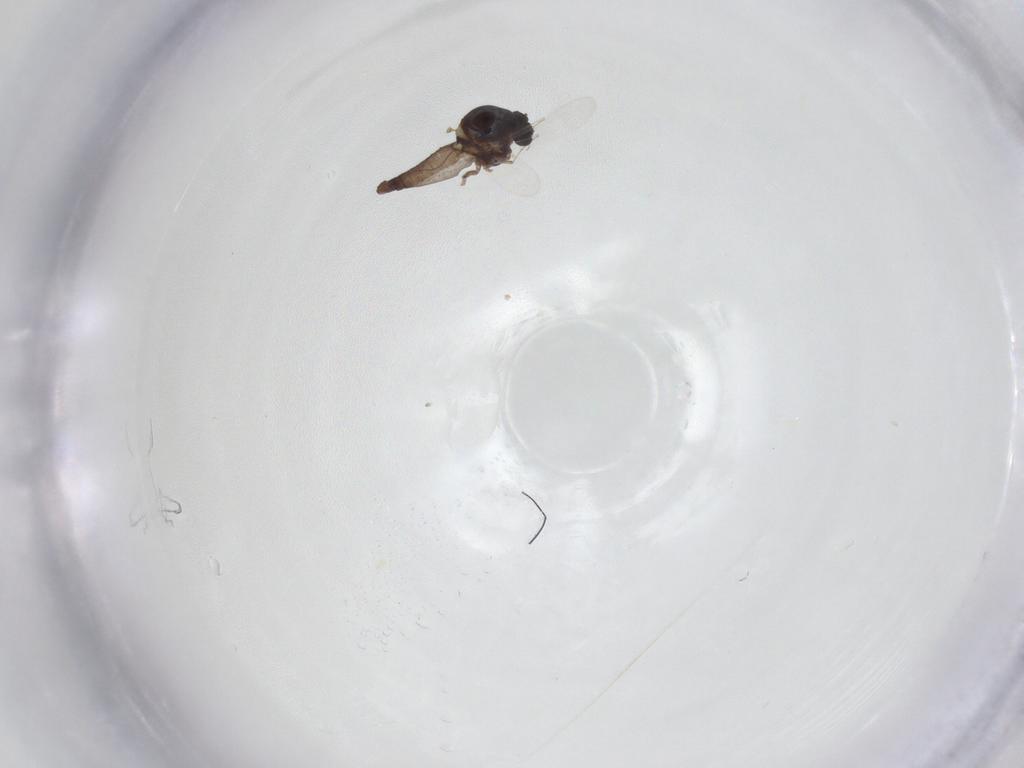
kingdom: Animalia
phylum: Arthropoda
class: Insecta
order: Diptera
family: Ceratopogonidae
